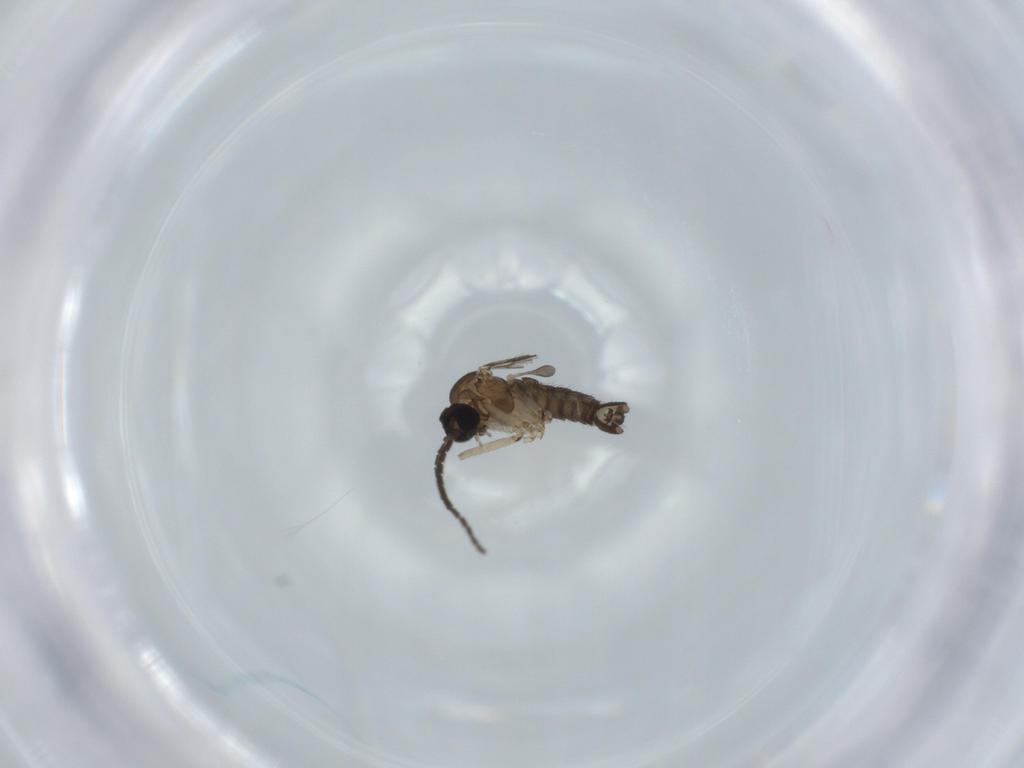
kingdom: Animalia
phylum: Arthropoda
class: Insecta
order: Diptera
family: Sciaridae
